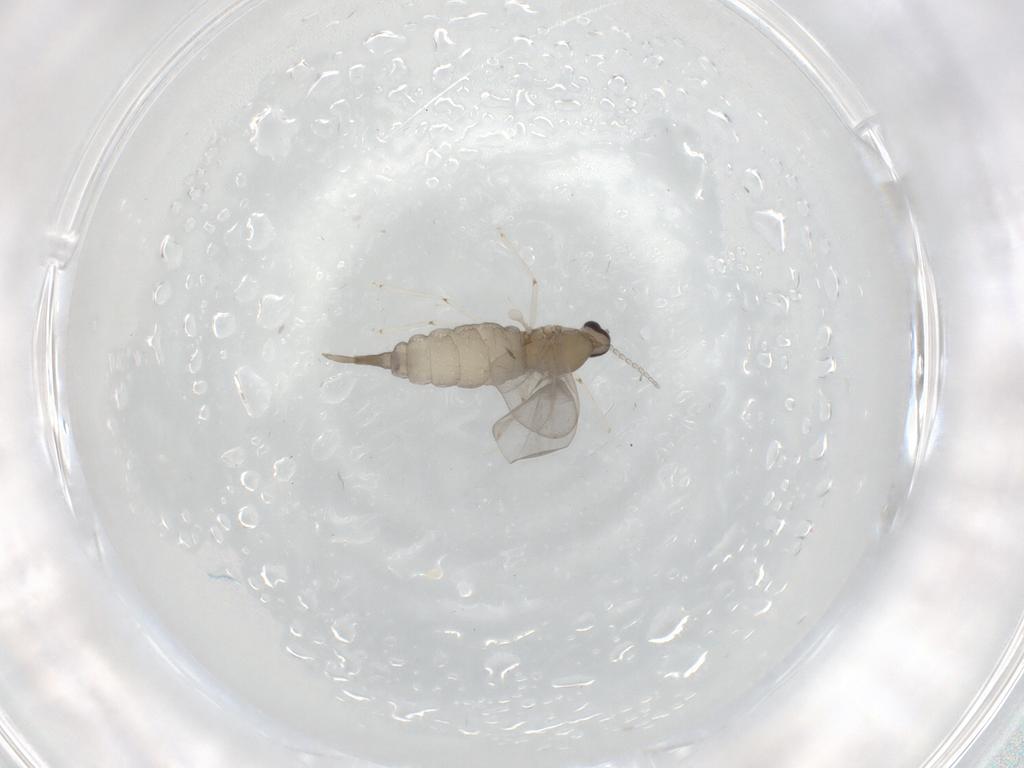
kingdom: Animalia
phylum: Arthropoda
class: Insecta
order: Diptera
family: Cecidomyiidae
